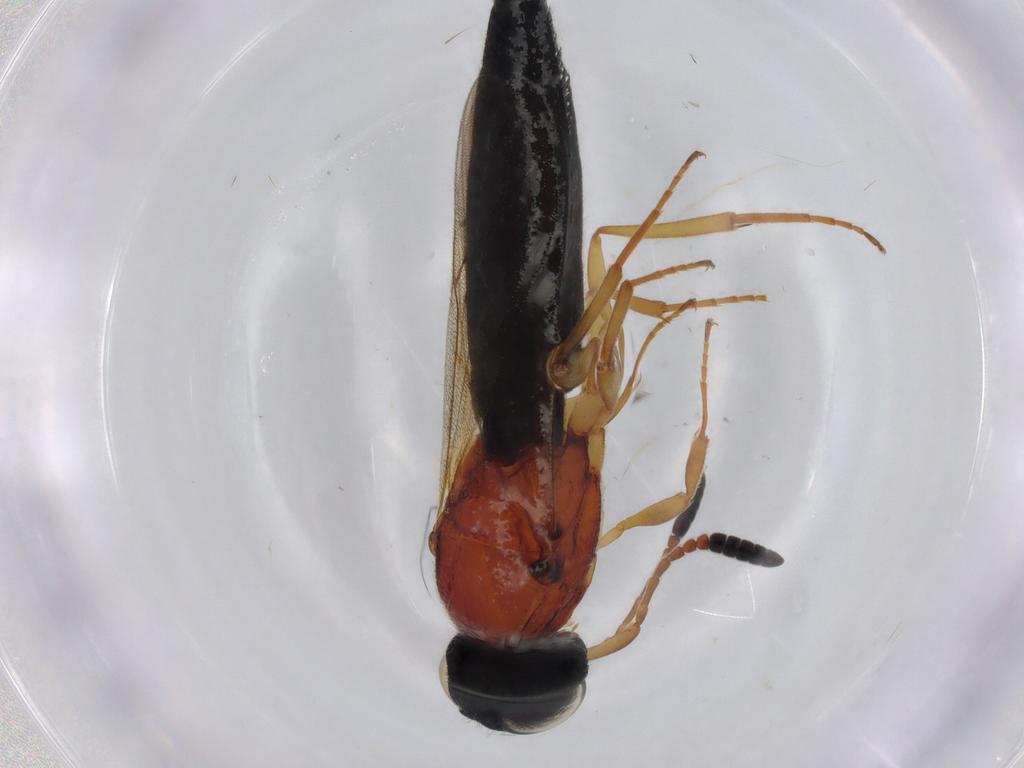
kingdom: Animalia
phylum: Arthropoda
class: Insecta
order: Hymenoptera
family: Scelionidae
